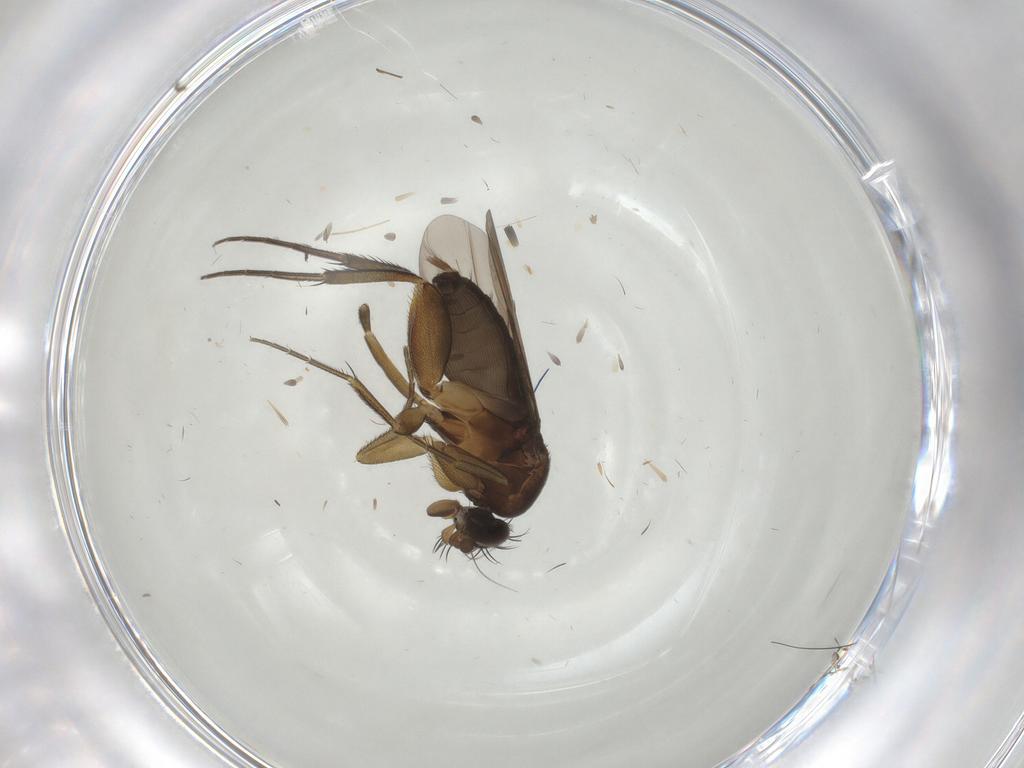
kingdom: Animalia
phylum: Arthropoda
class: Insecta
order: Diptera
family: Phoridae
